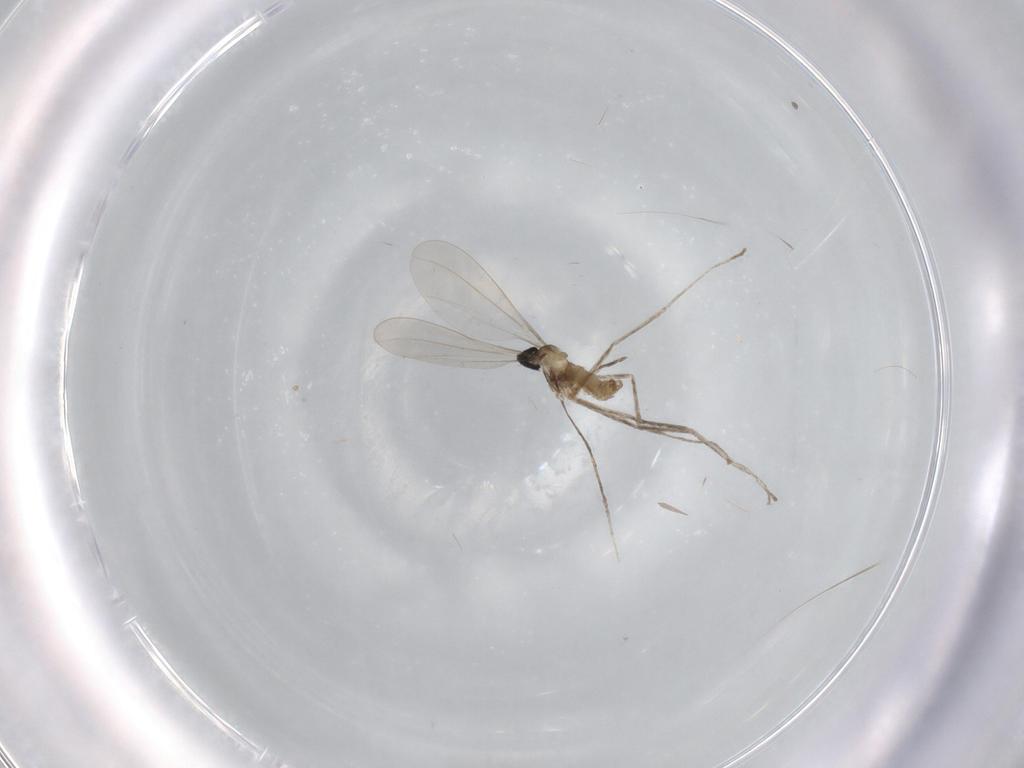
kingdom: Animalia
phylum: Arthropoda
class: Insecta
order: Diptera
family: Cecidomyiidae
